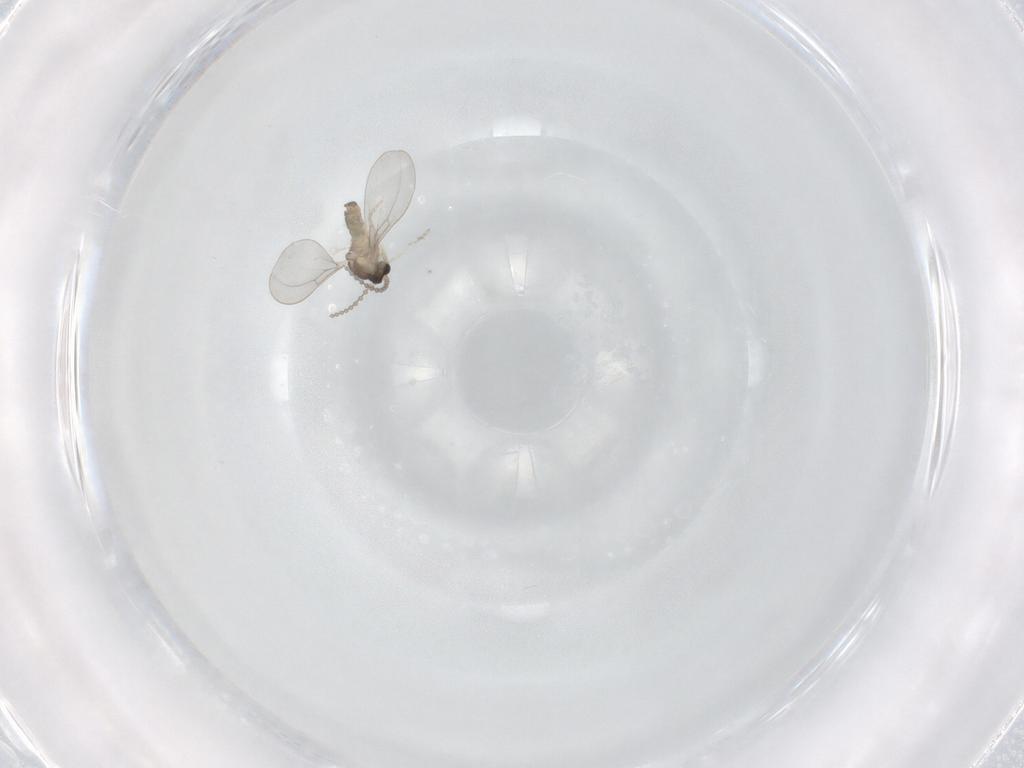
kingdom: Animalia
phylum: Arthropoda
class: Insecta
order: Diptera
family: Cecidomyiidae
